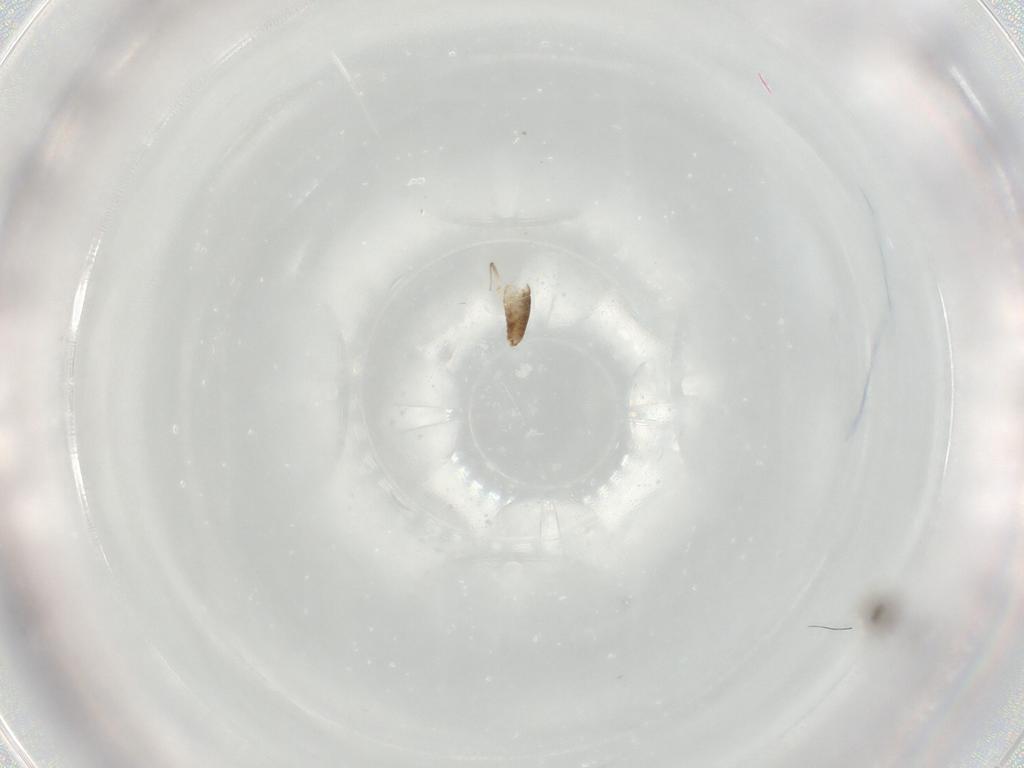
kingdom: Animalia
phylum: Arthropoda
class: Insecta
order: Diptera
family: Chironomidae
